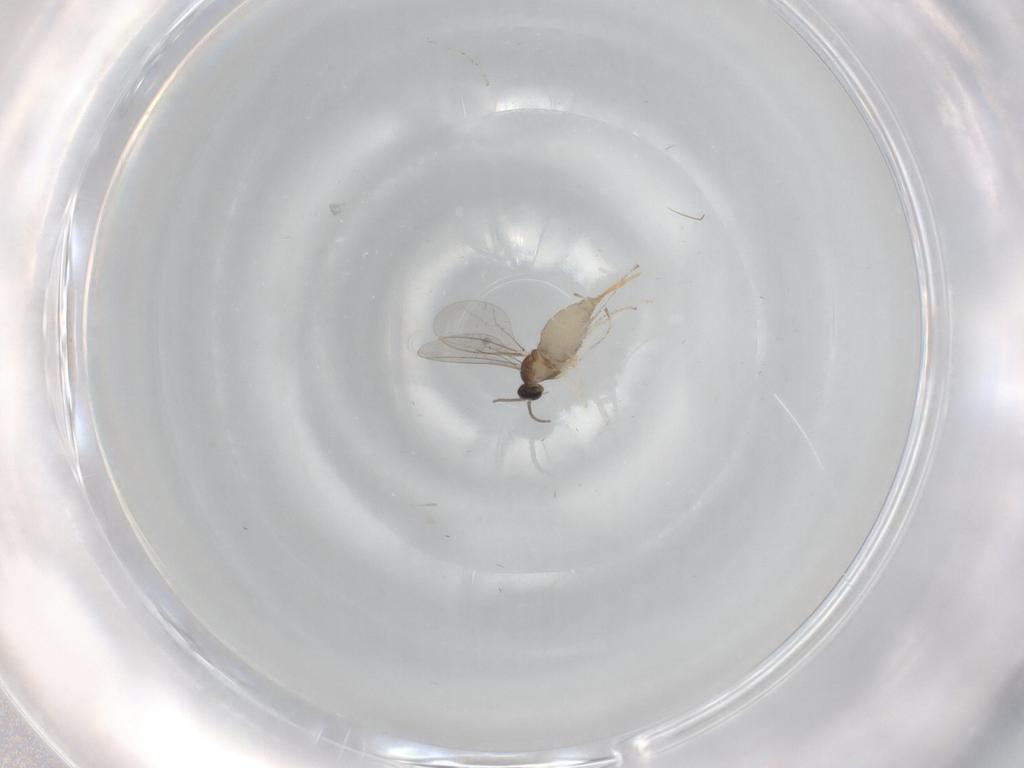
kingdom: Animalia
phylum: Arthropoda
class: Insecta
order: Diptera
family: Cecidomyiidae
